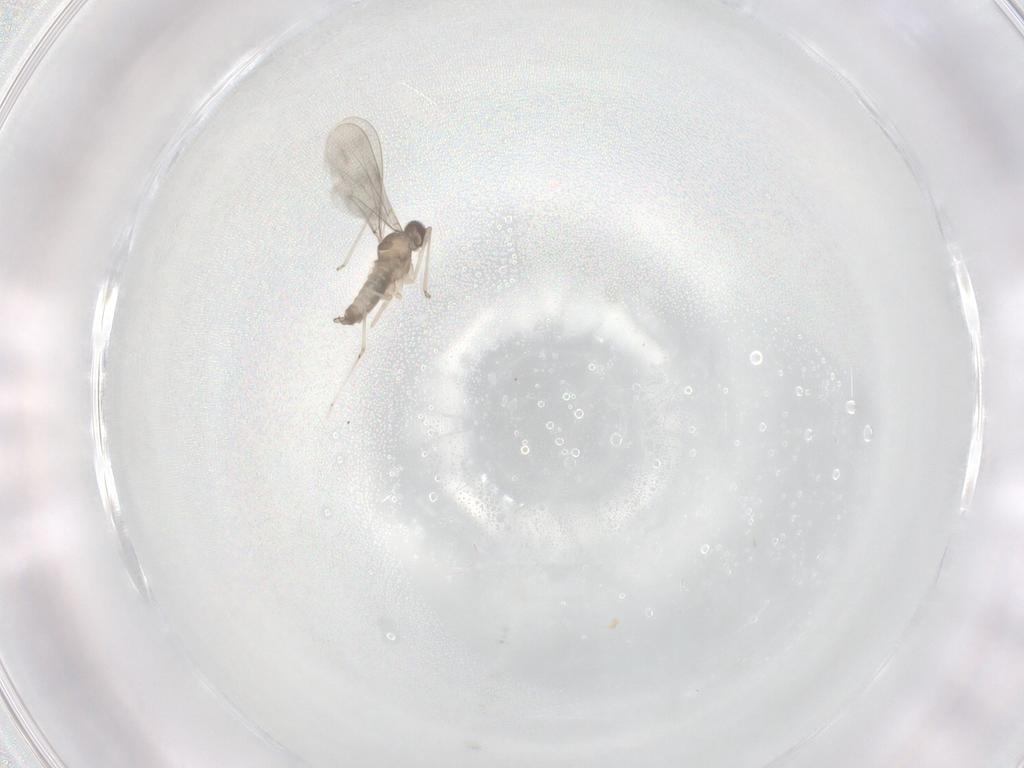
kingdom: Animalia
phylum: Arthropoda
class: Insecta
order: Diptera
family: Cecidomyiidae
